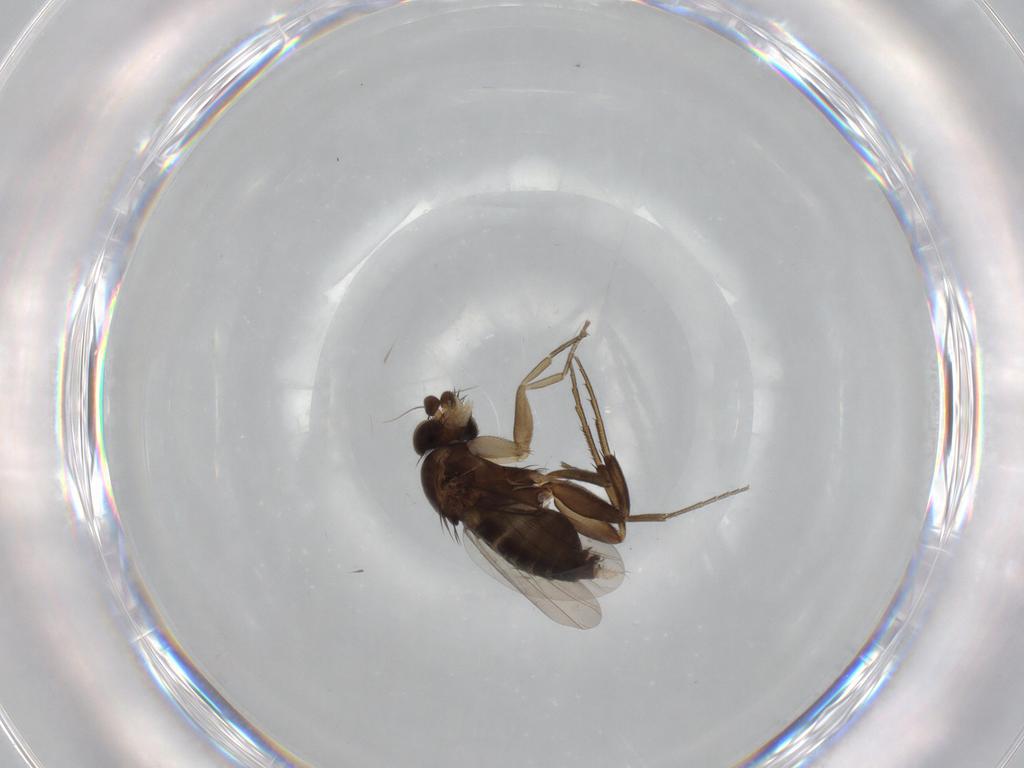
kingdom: Animalia
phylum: Arthropoda
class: Insecta
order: Diptera
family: Phoridae
